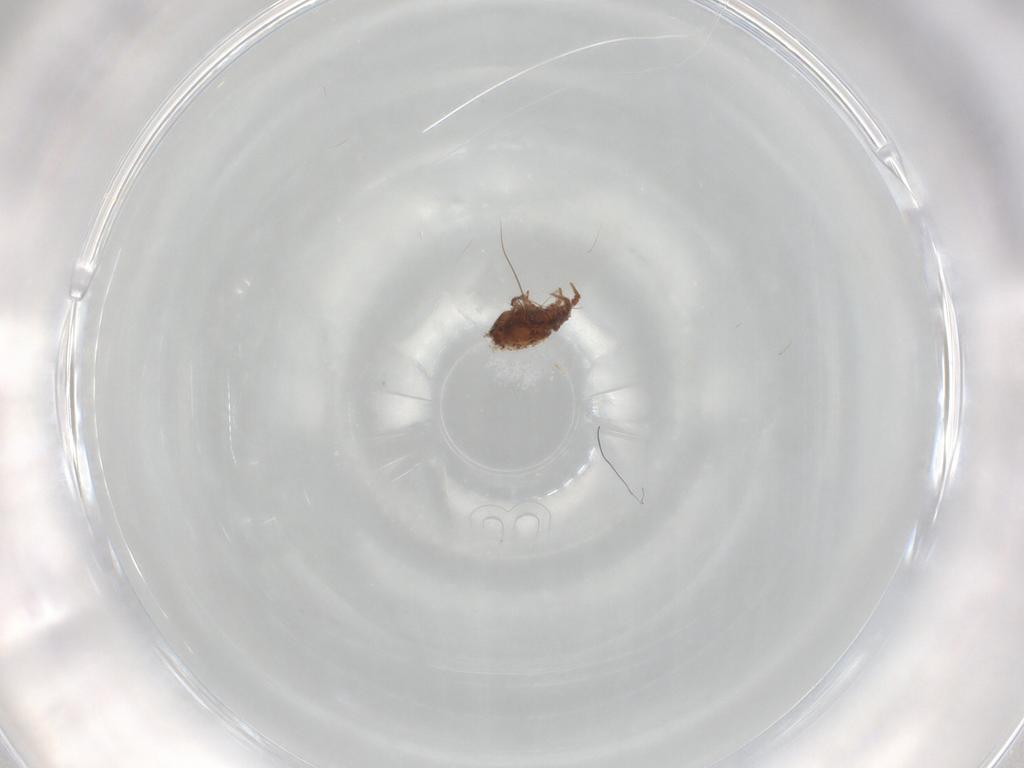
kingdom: Animalia
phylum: Arthropoda
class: Arachnida
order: Sarcoptiformes
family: Crotoniidae
